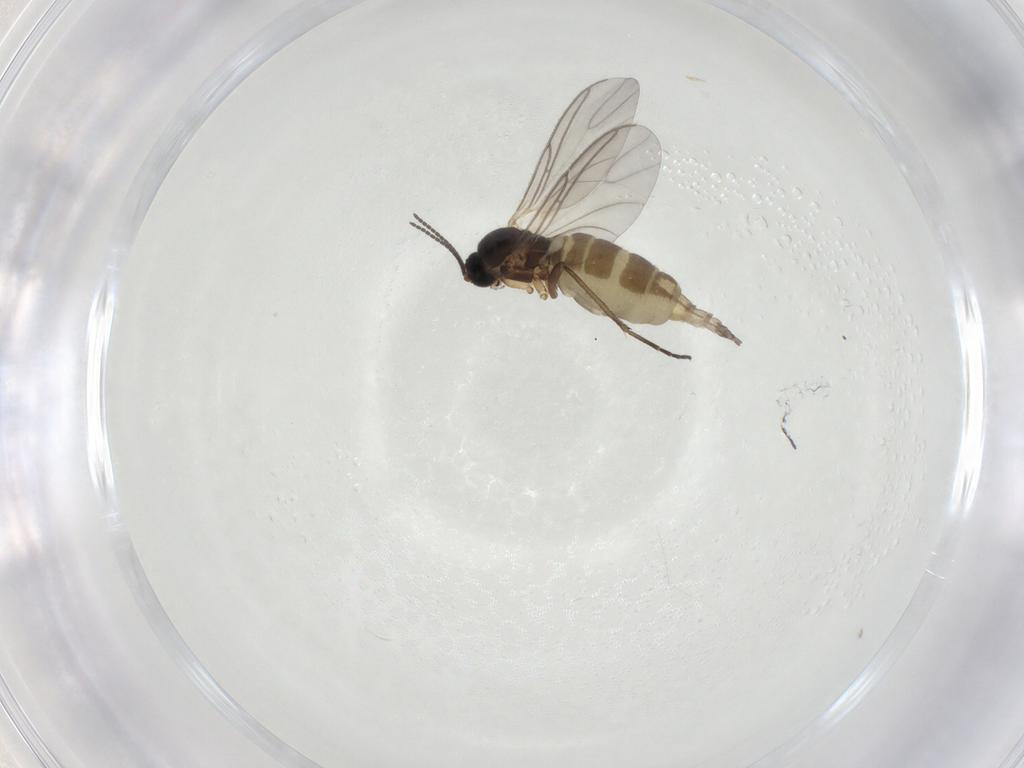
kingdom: Animalia
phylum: Arthropoda
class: Insecta
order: Diptera
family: Sciaridae
